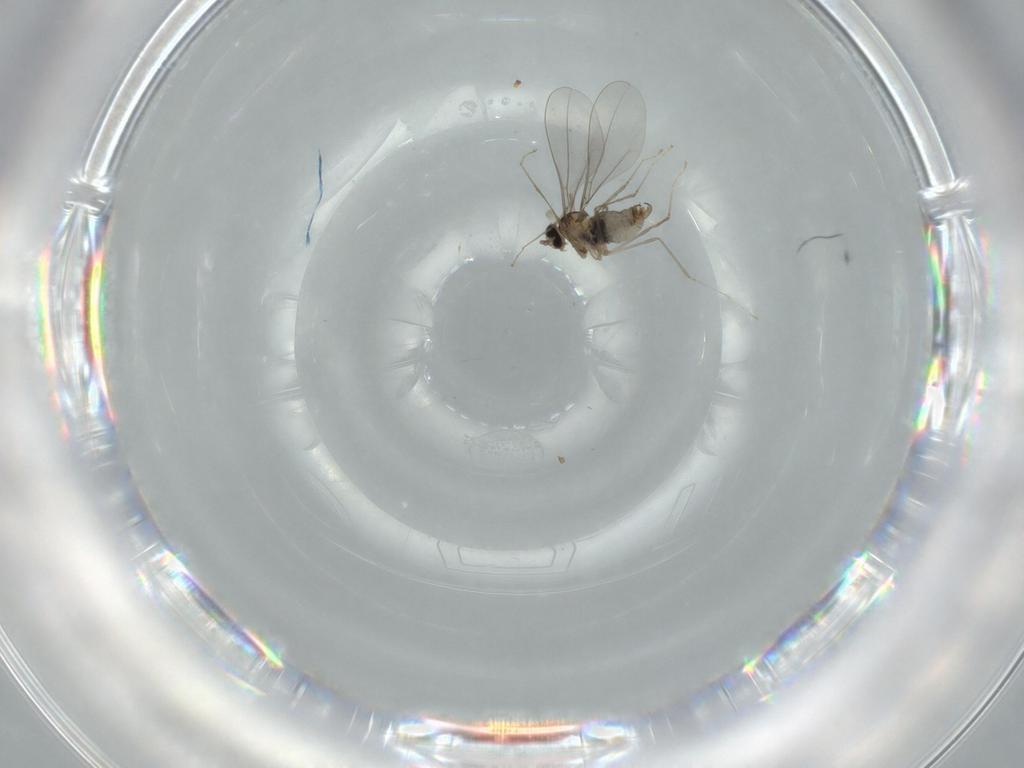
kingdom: Animalia
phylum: Arthropoda
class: Insecta
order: Diptera
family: Cecidomyiidae
